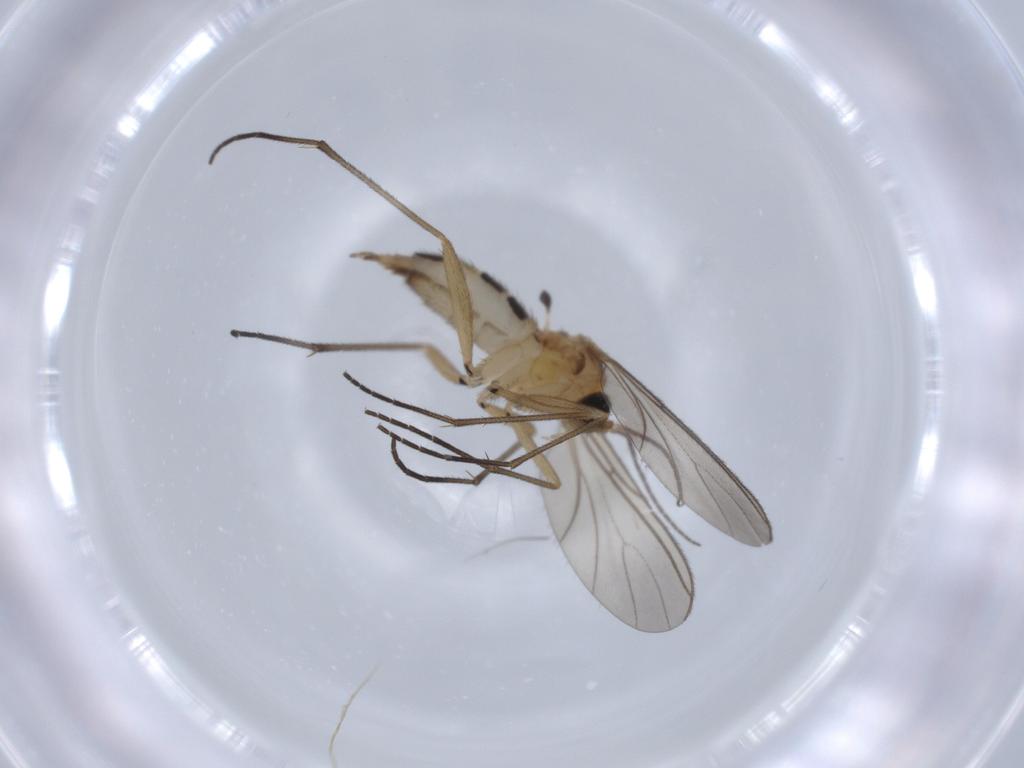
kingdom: Animalia
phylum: Arthropoda
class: Insecta
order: Diptera
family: Sciaridae
